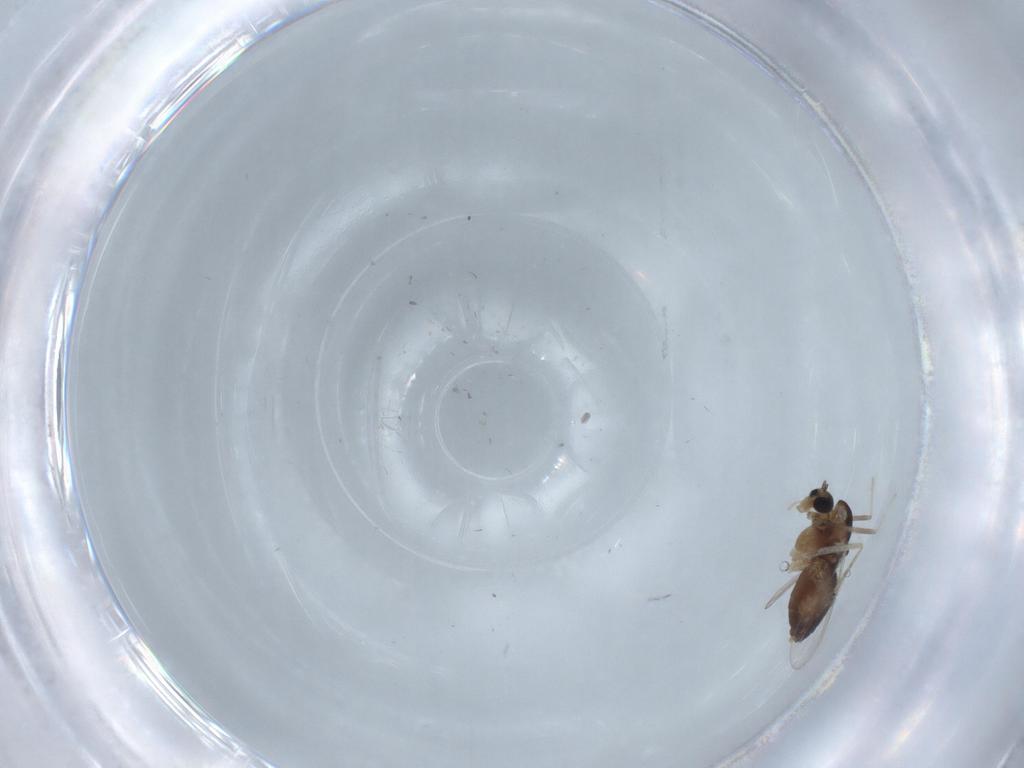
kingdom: Animalia
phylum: Arthropoda
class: Insecta
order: Diptera
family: Chironomidae
